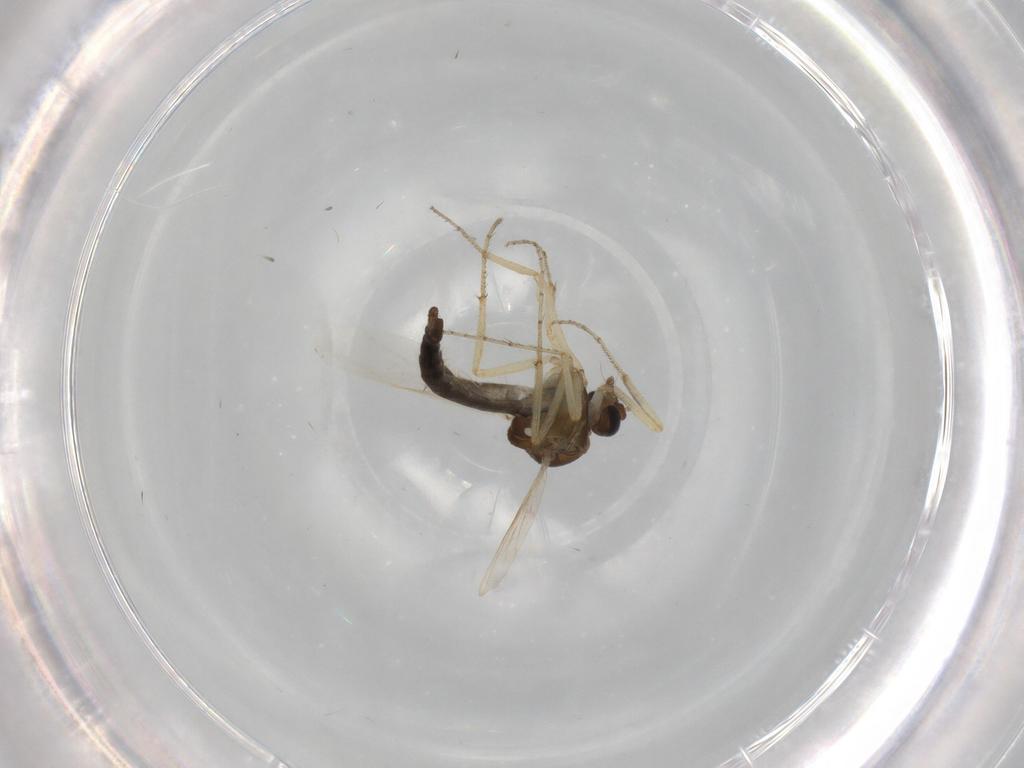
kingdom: Animalia
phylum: Arthropoda
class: Insecta
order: Diptera
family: Ceratopogonidae
